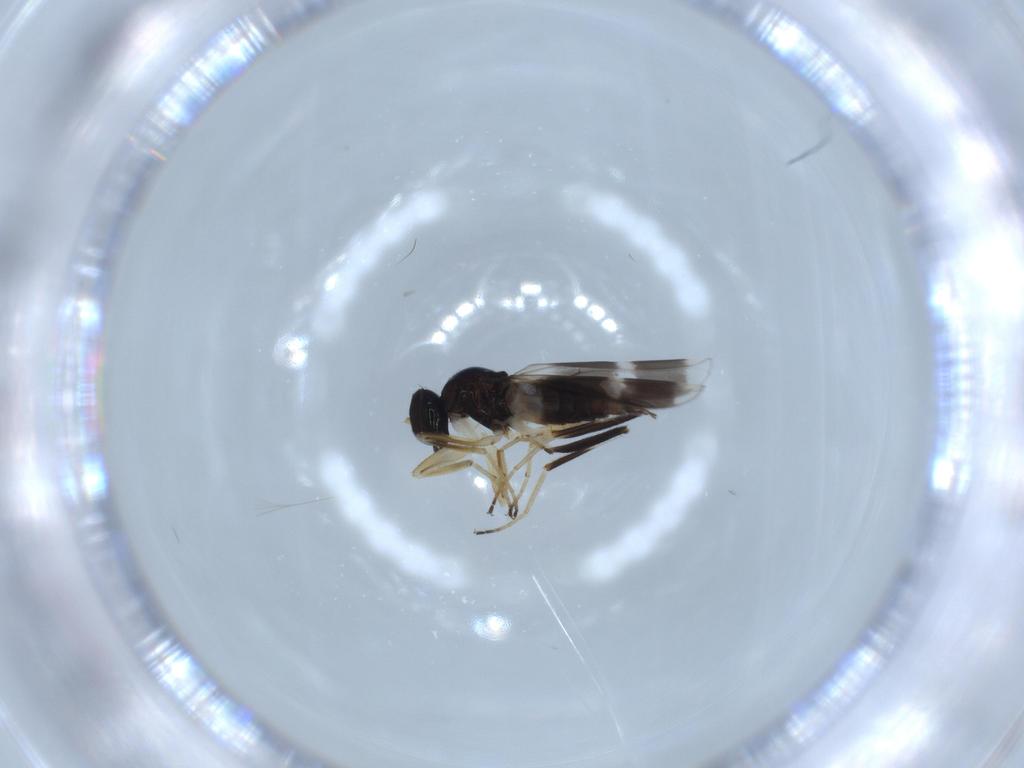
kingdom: Animalia
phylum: Arthropoda
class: Insecta
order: Diptera
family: Hybotidae
